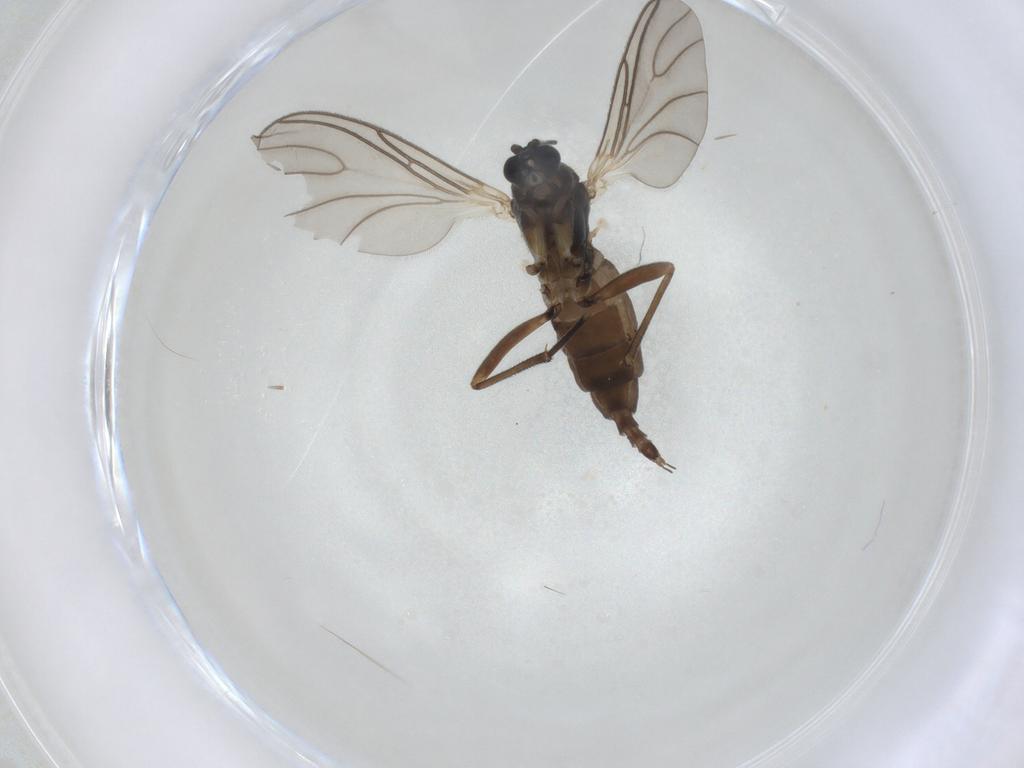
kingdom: Animalia
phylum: Arthropoda
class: Insecta
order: Diptera
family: Sciaridae
